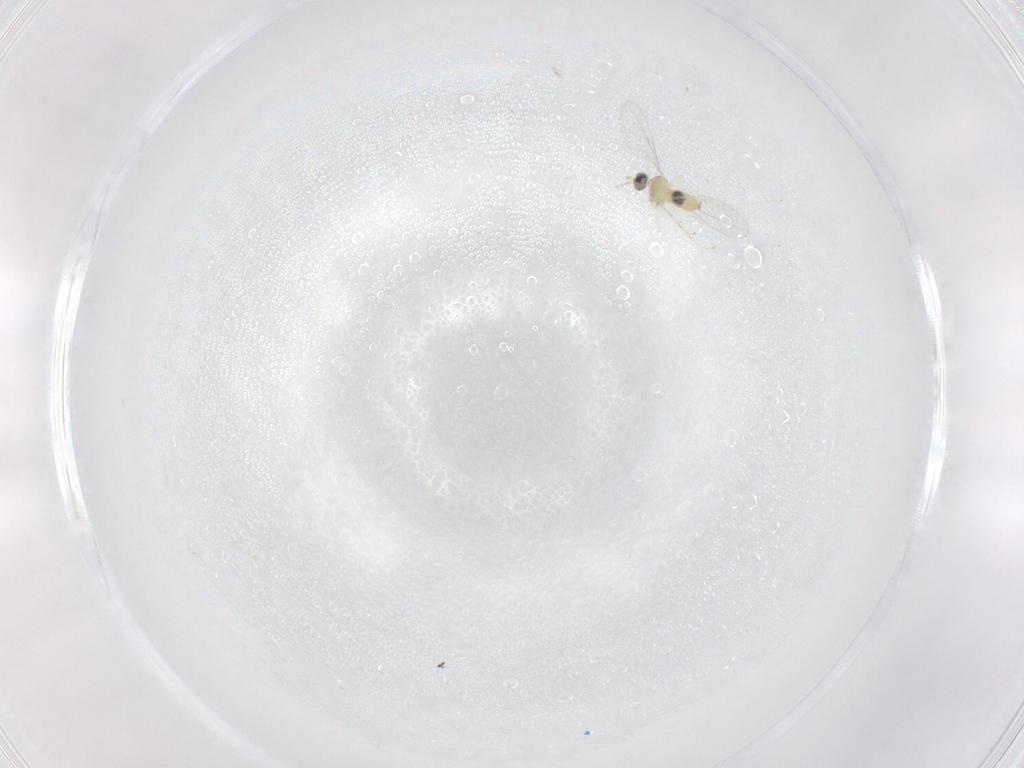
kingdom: Animalia
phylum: Arthropoda
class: Insecta
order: Diptera
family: Cecidomyiidae
